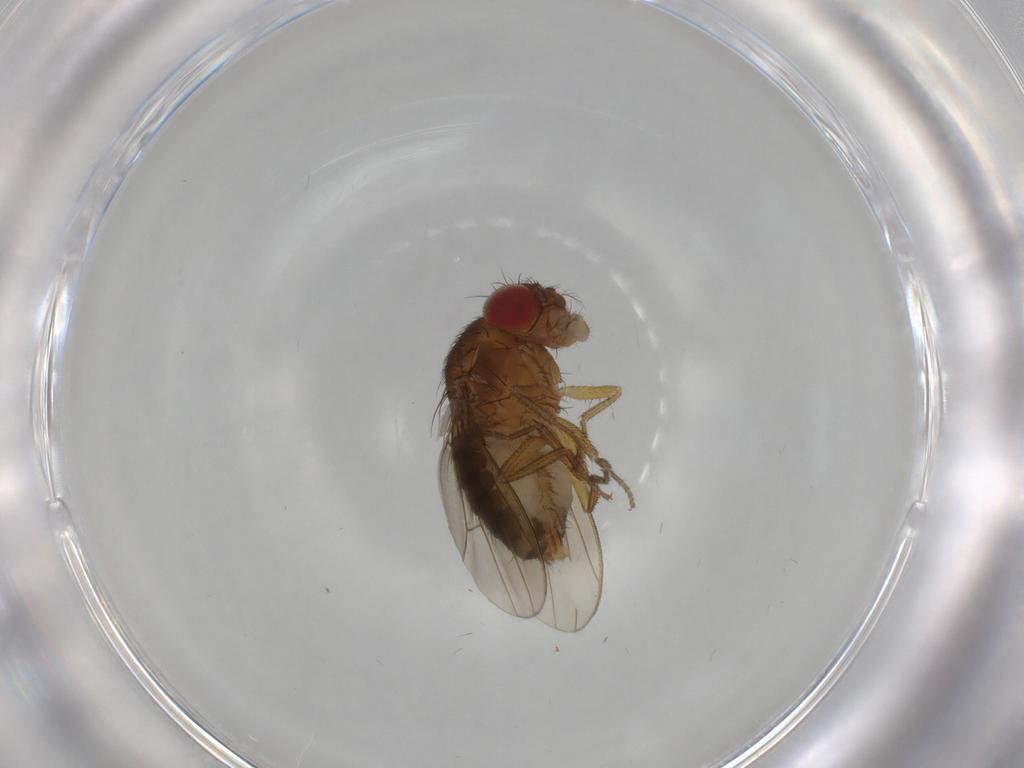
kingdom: Animalia
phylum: Arthropoda
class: Insecta
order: Diptera
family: Drosophilidae
